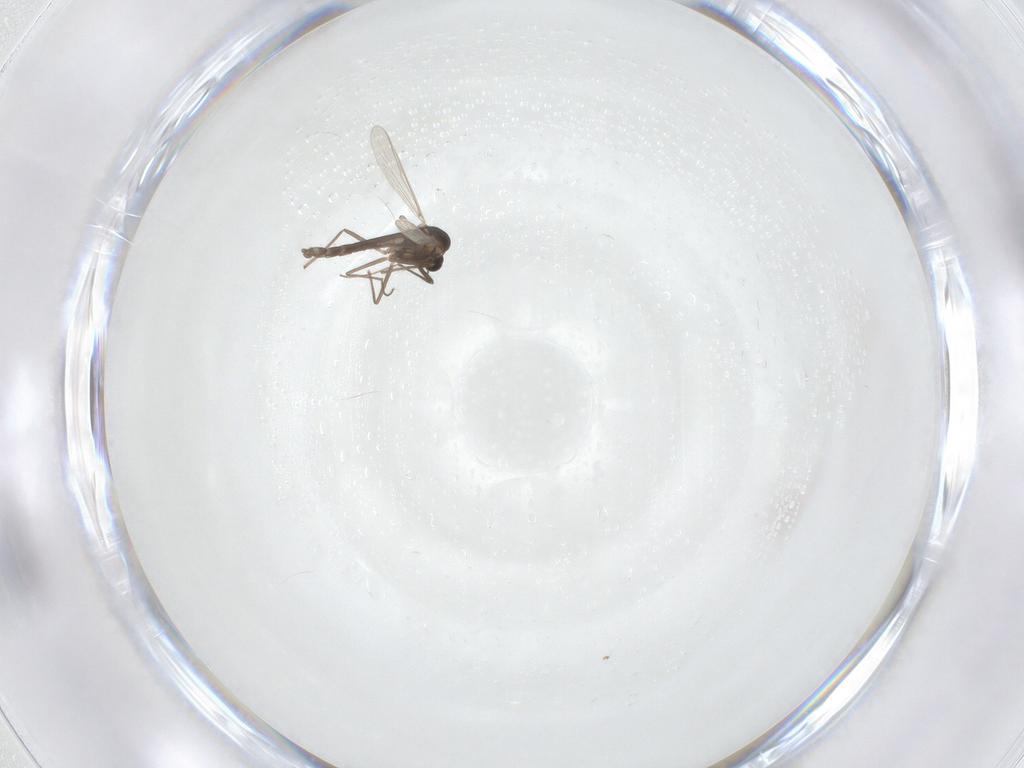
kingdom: Animalia
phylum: Arthropoda
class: Insecta
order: Diptera
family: Chironomidae
